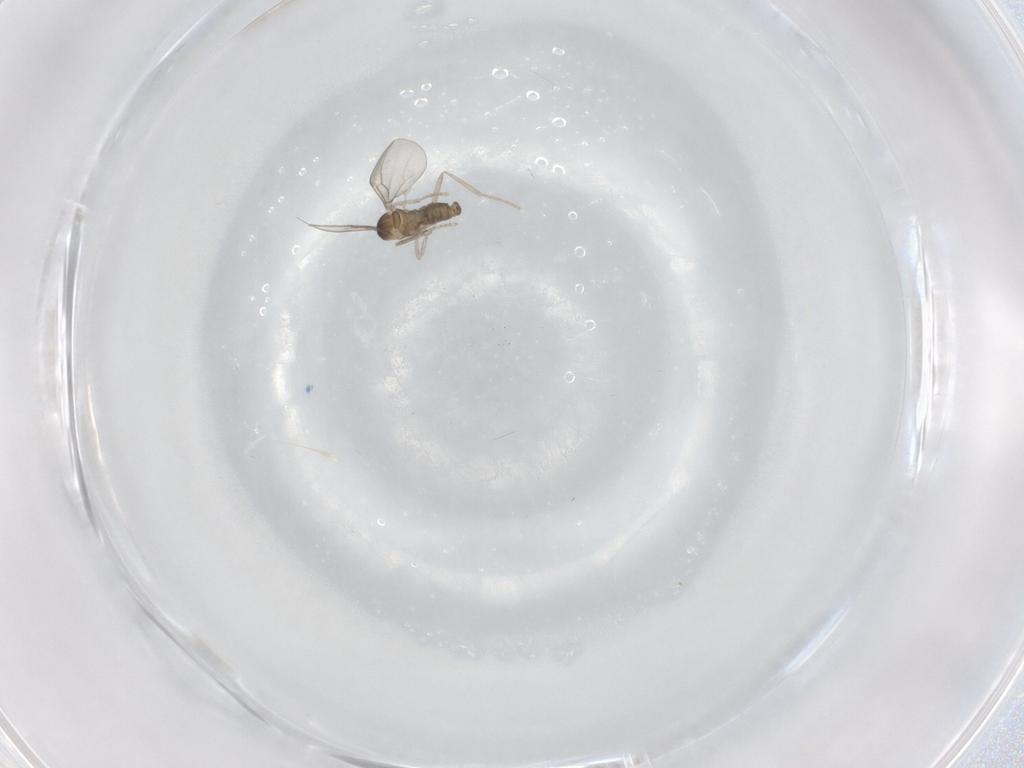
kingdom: Animalia
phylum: Arthropoda
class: Insecta
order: Diptera
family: Cecidomyiidae
